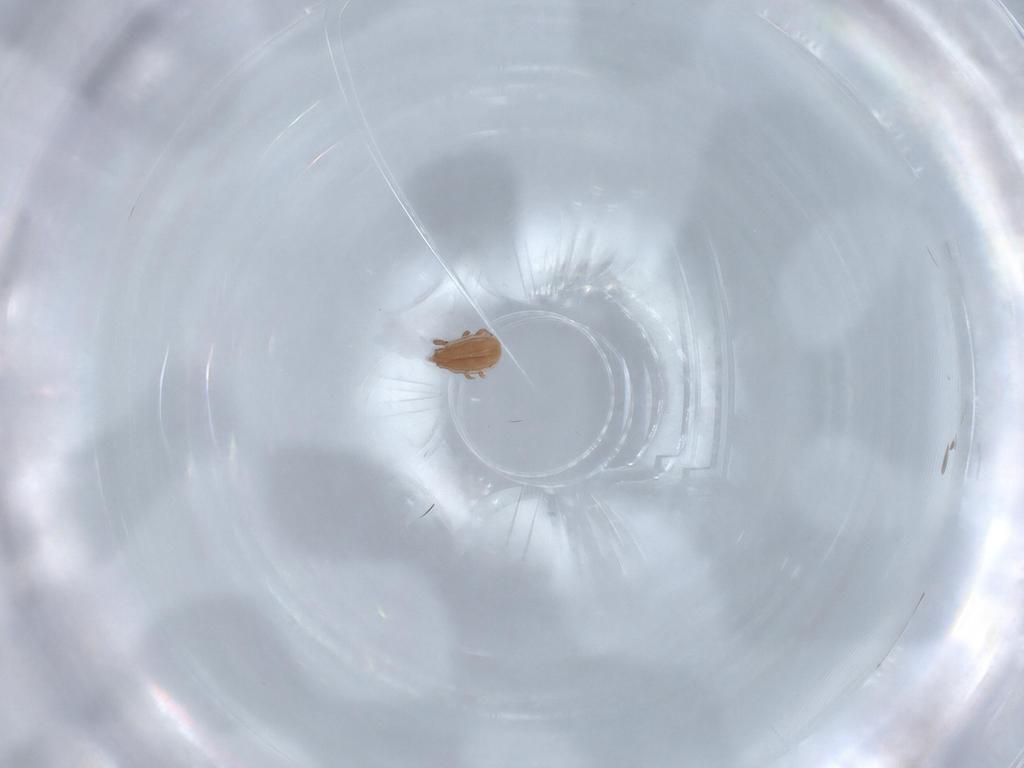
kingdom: Animalia
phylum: Arthropoda
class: Arachnida
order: Mesostigmata
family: Dinychidae
